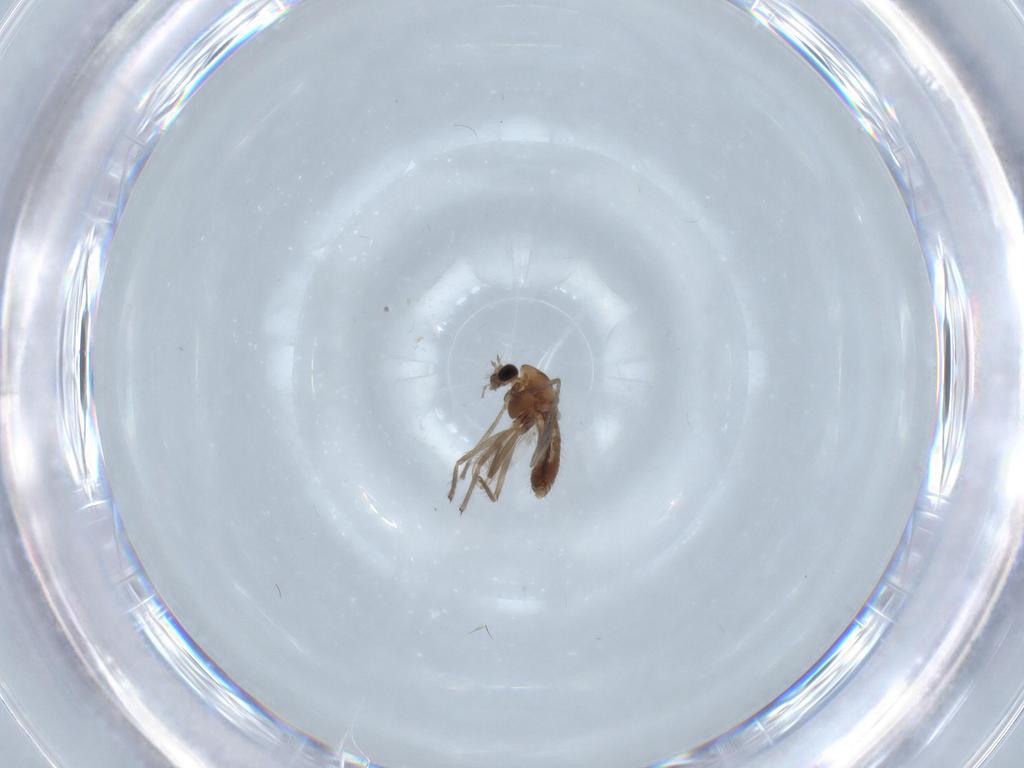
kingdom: Animalia
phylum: Arthropoda
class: Insecta
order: Diptera
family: Chironomidae
